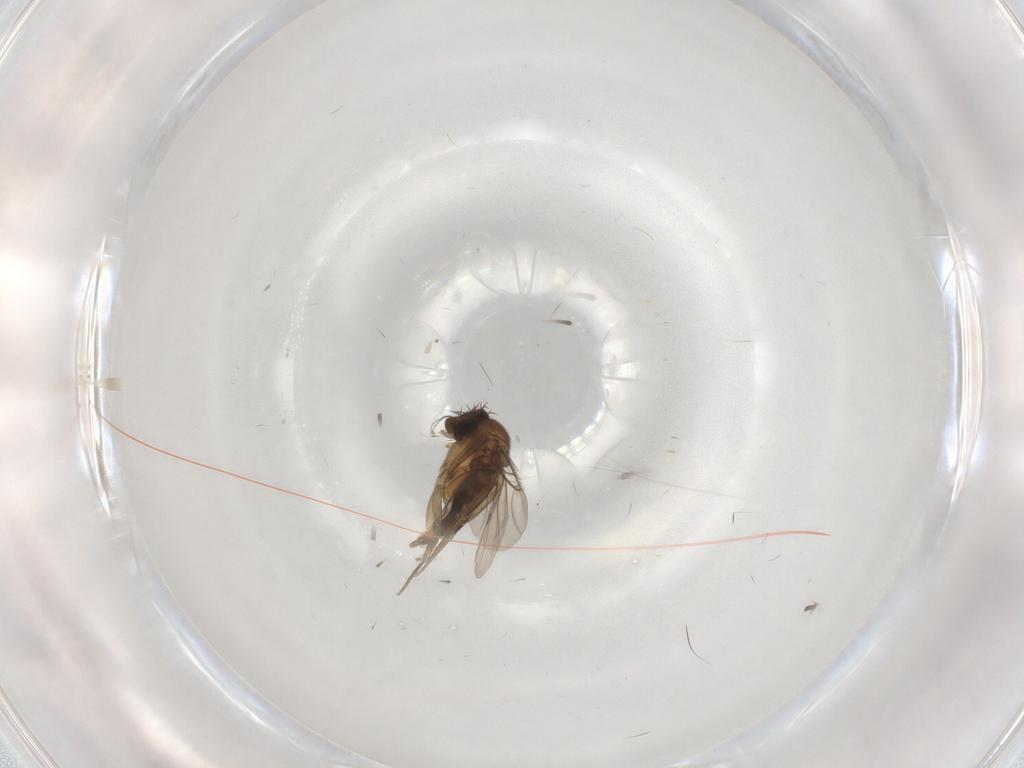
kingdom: Animalia
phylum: Arthropoda
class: Insecta
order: Diptera
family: Phoridae
